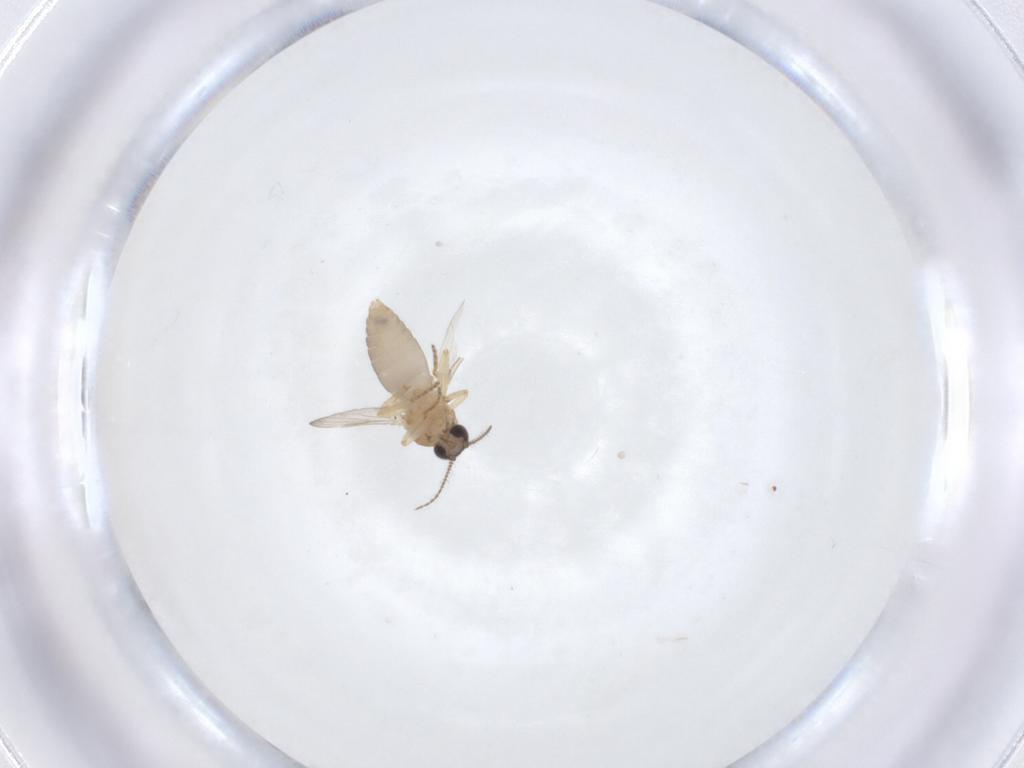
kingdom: Animalia
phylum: Arthropoda
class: Insecta
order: Diptera
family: Ceratopogonidae
